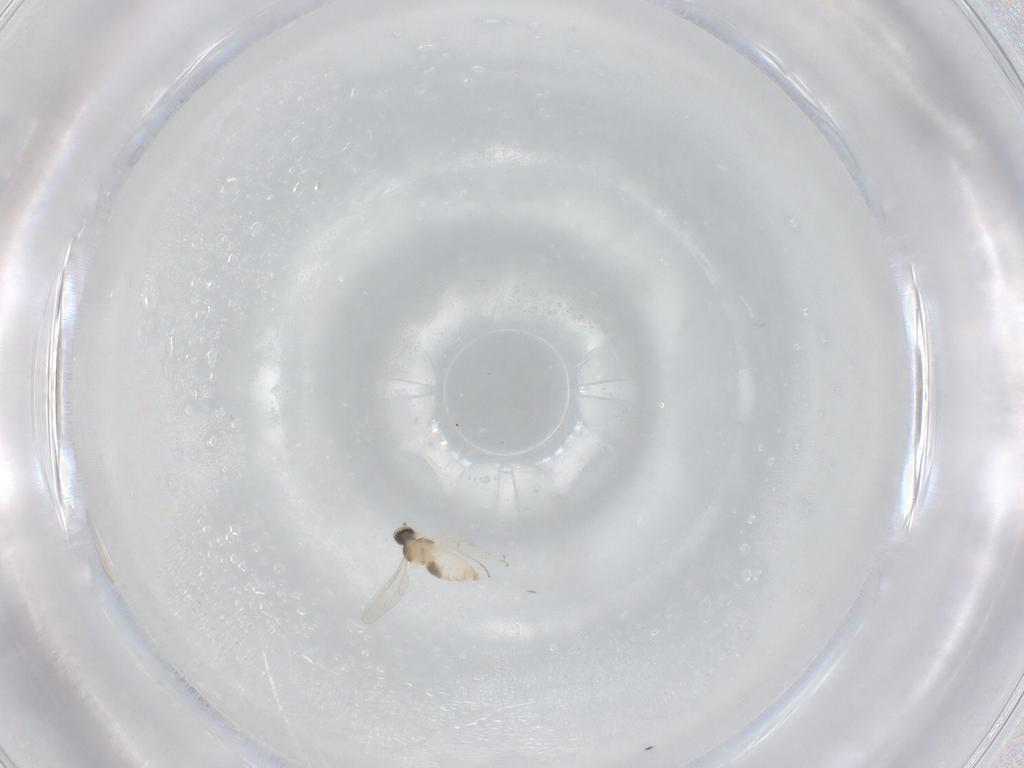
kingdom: Animalia
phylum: Arthropoda
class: Insecta
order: Diptera
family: Cecidomyiidae
